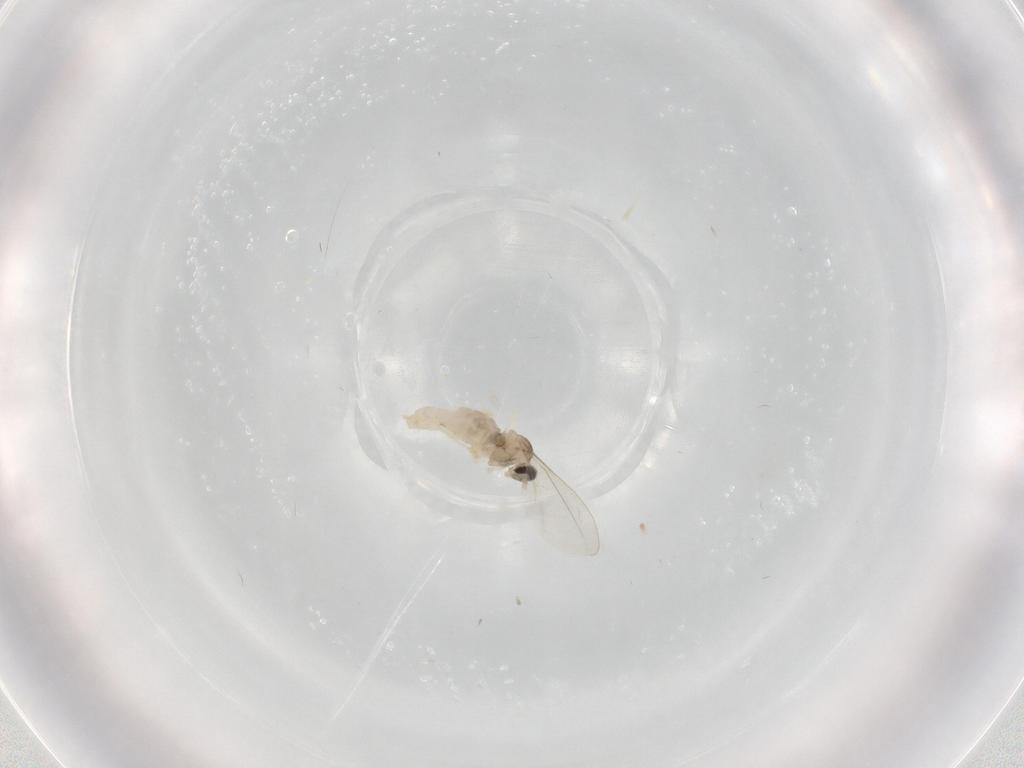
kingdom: Animalia
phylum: Arthropoda
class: Insecta
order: Diptera
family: Cecidomyiidae
